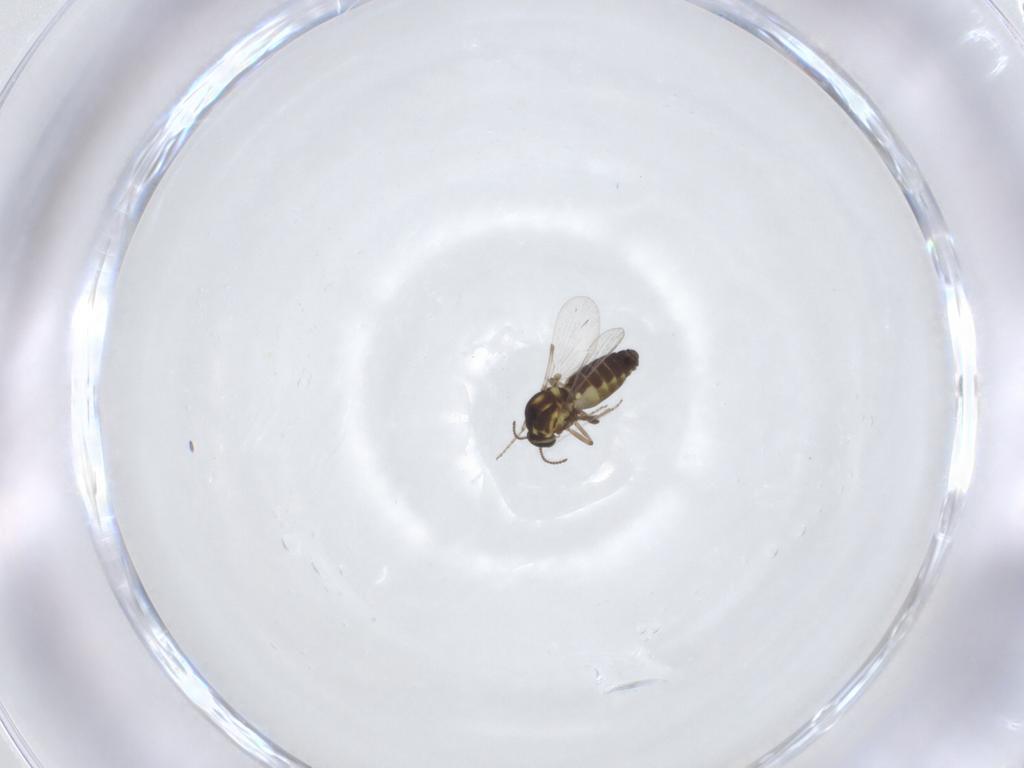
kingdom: Animalia
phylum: Arthropoda
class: Insecta
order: Diptera
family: Ceratopogonidae
